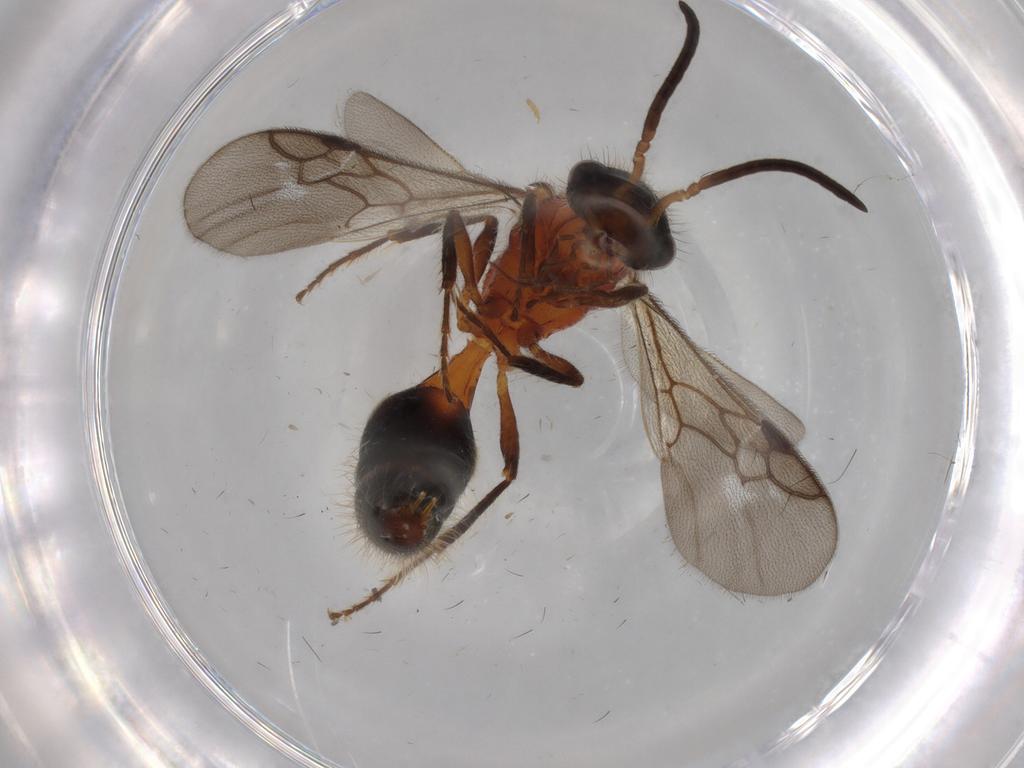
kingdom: Animalia
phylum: Arthropoda
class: Insecta
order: Hymenoptera
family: Mutillidae
